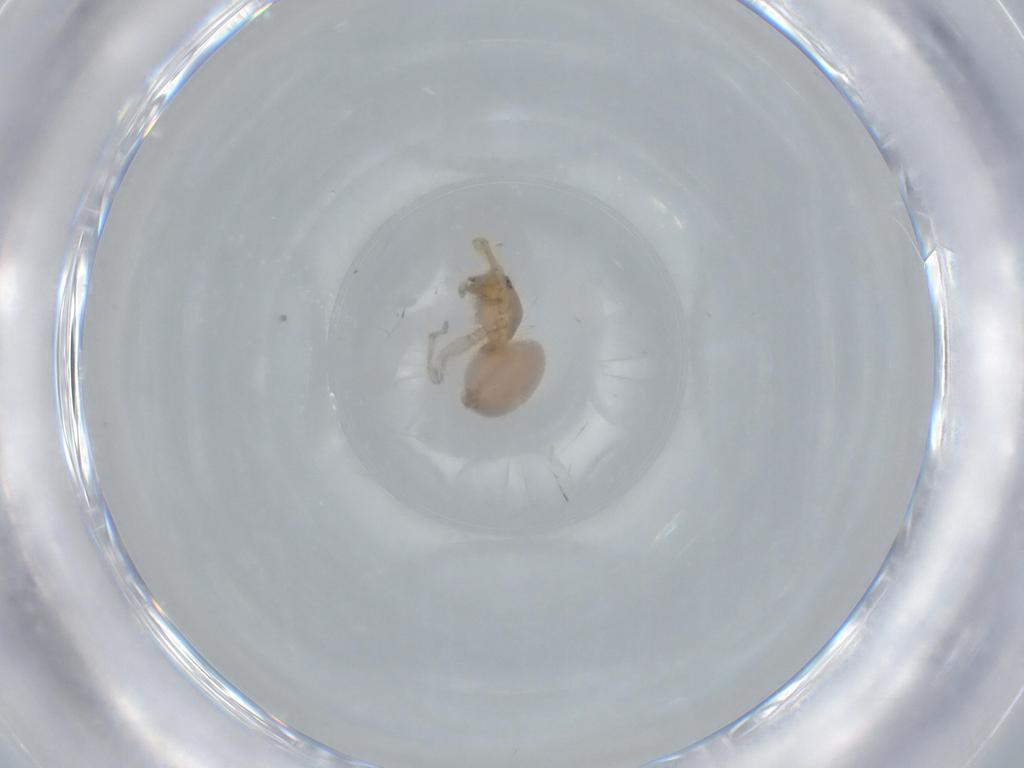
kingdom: Animalia
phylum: Arthropoda
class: Arachnida
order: Araneae
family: Oonopidae
